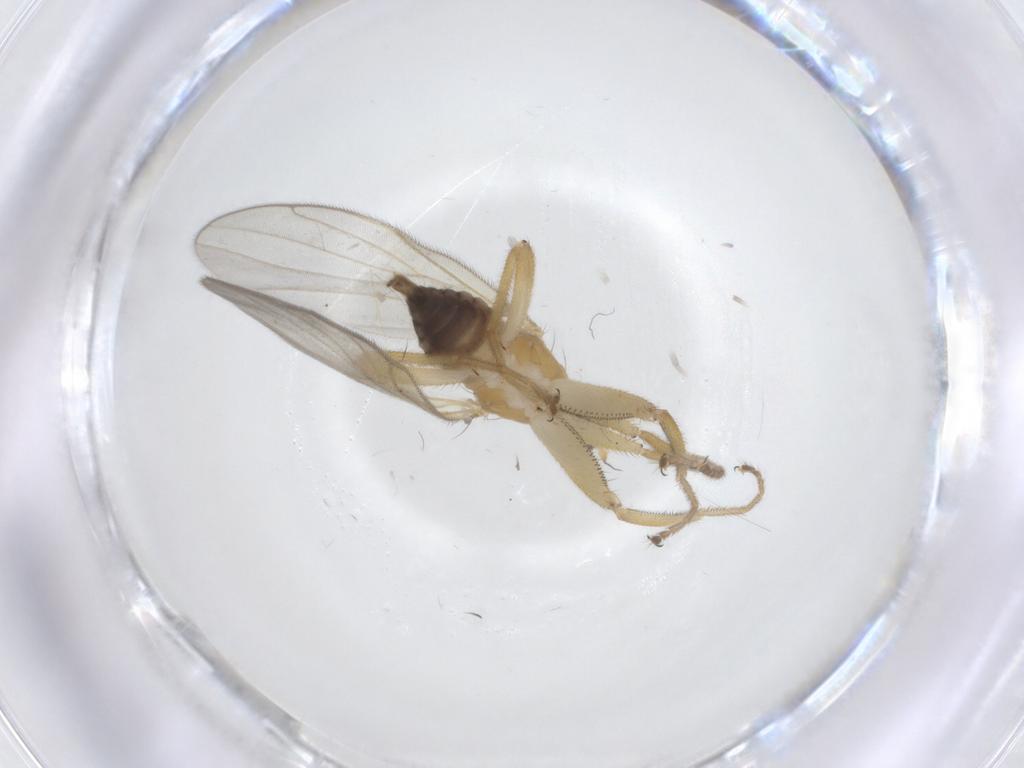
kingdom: Animalia
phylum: Arthropoda
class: Insecta
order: Diptera
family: Hybotidae
